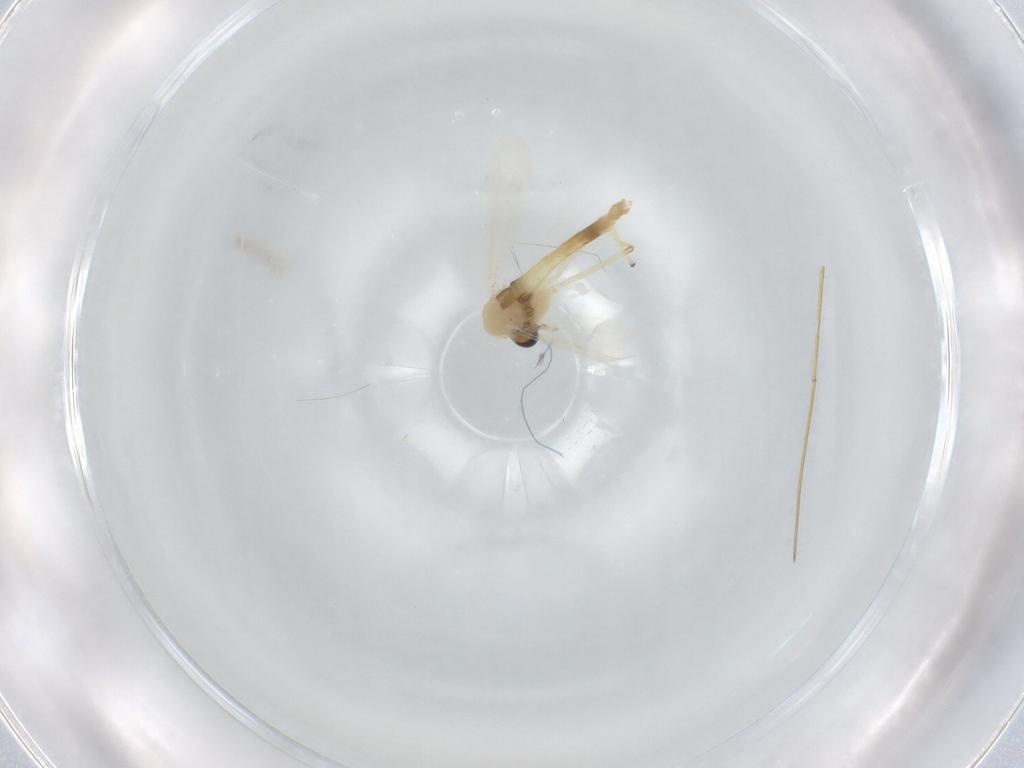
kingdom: Animalia
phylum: Arthropoda
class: Insecta
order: Diptera
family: Chironomidae
